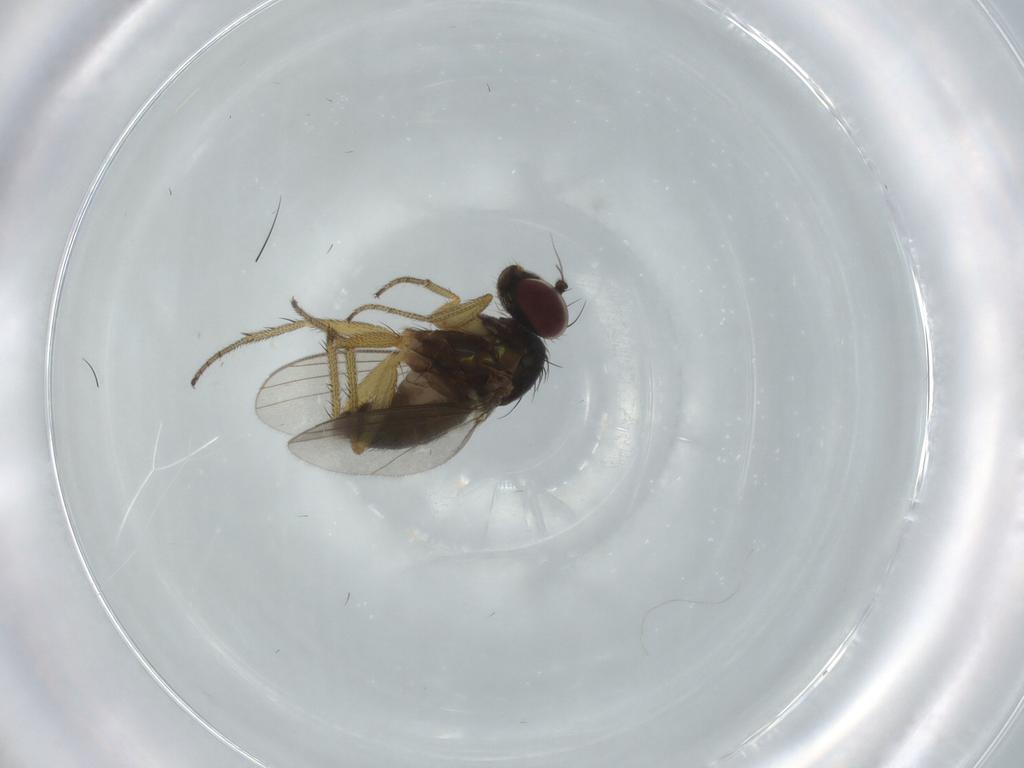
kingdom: Animalia
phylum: Arthropoda
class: Insecta
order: Diptera
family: Dolichopodidae
